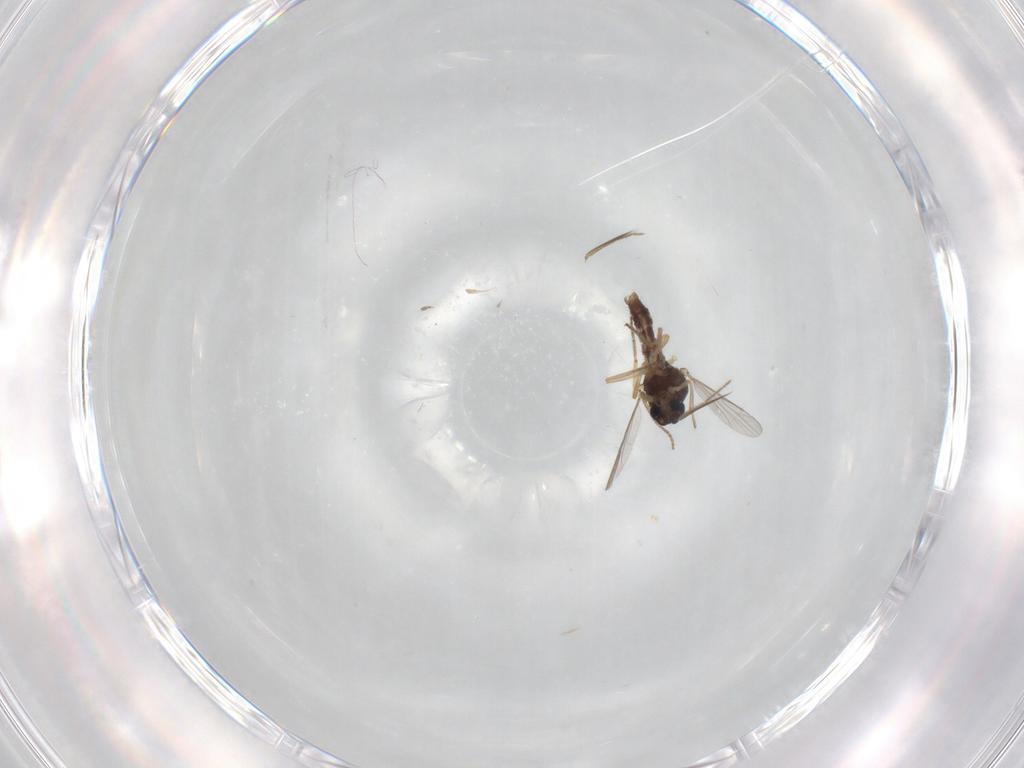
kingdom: Animalia
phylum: Arthropoda
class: Insecta
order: Diptera
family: Ceratopogonidae
